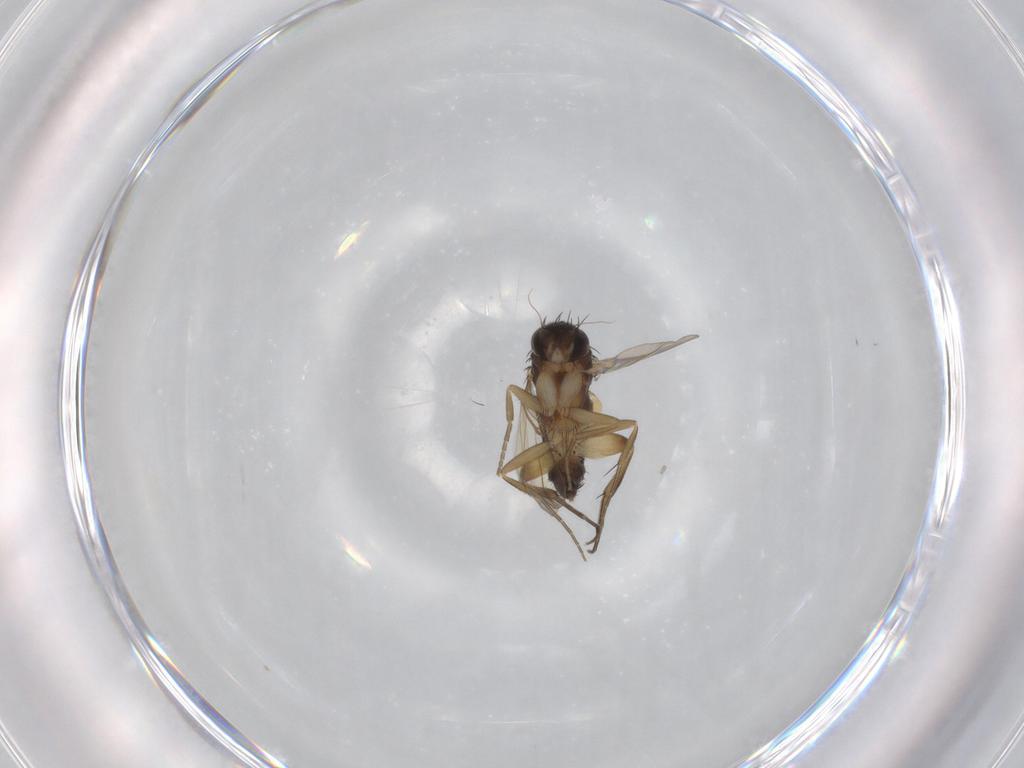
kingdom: Animalia
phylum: Arthropoda
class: Insecta
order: Diptera
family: Phoridae
